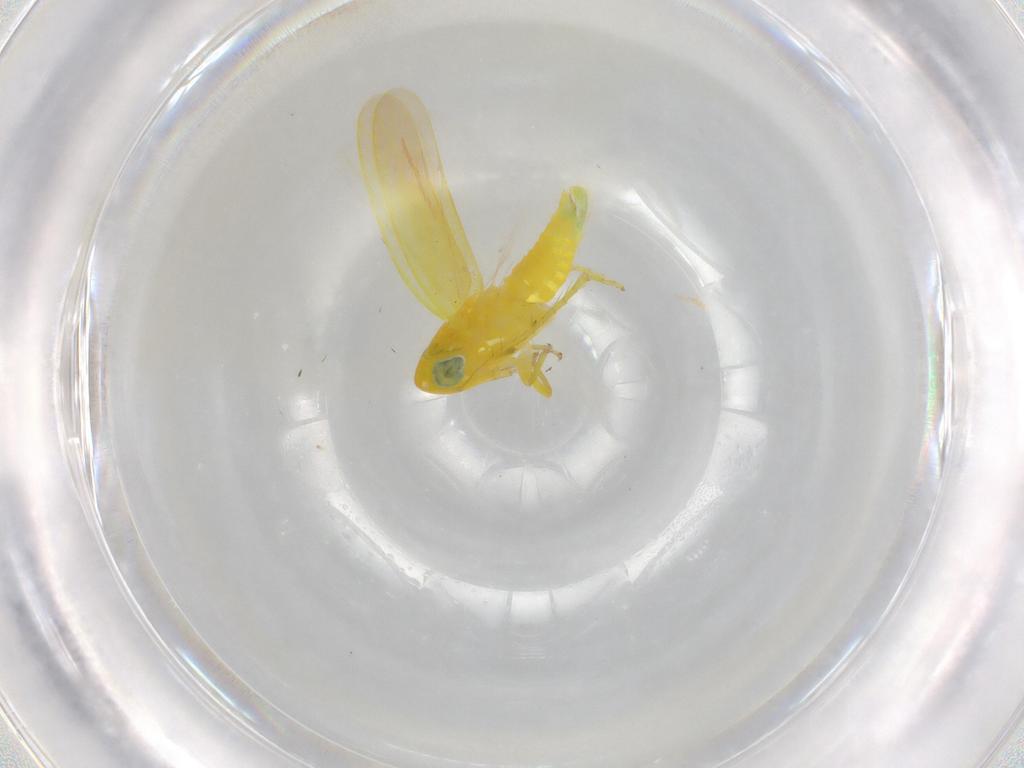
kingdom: Animalia
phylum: Arthropoda
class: Insecta
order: Hemiptera
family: Cicadellidae
